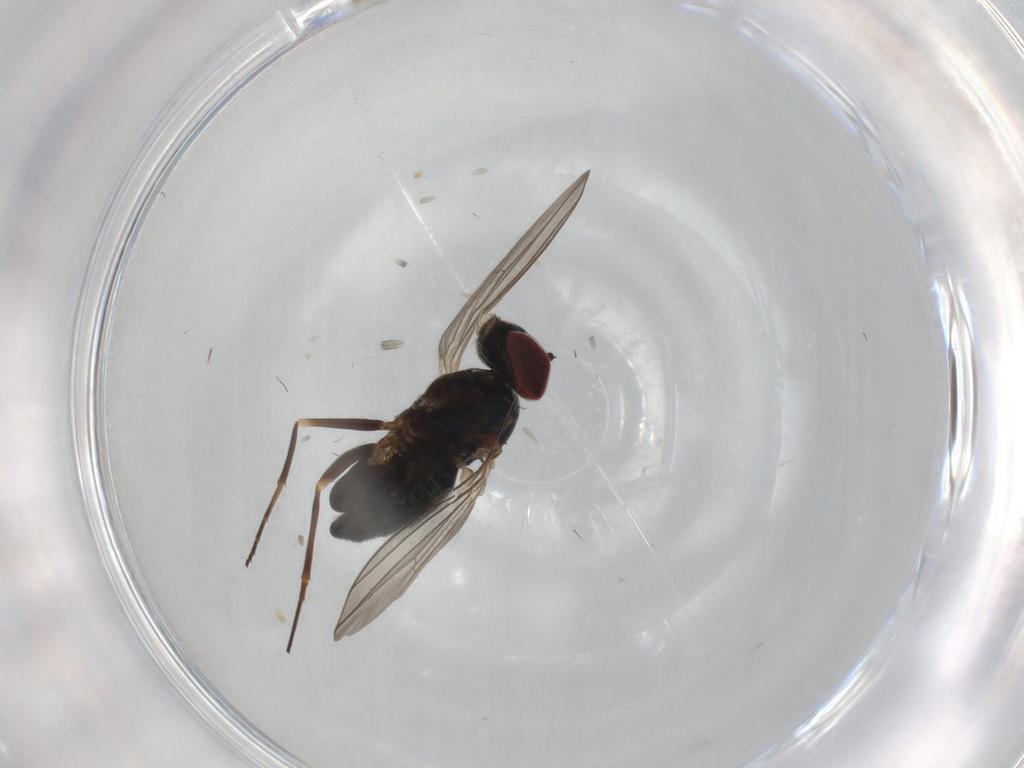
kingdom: Animalia
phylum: Arthropoda
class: Insecta
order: Diptera
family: Dolichopodidae
